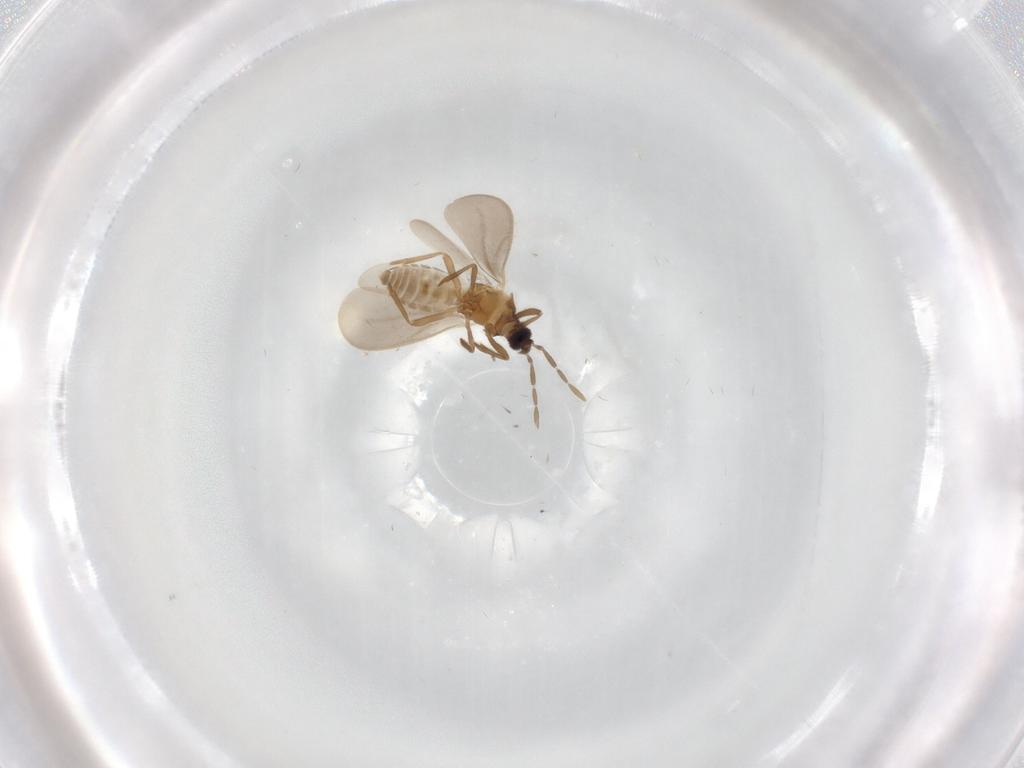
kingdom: Animalia
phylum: Arthropoda
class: Insecta
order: Hemiptera
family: Enicocephalidae
